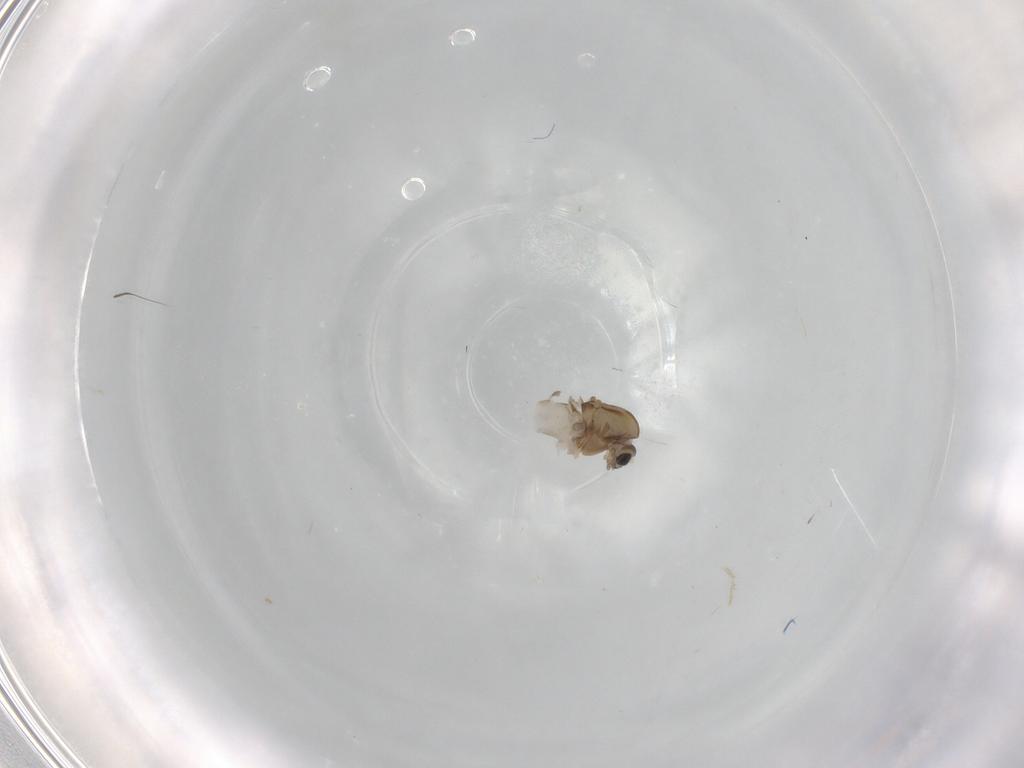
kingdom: Animalia
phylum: Arthropoda
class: Insecta
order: Diptera
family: Chironomidae
